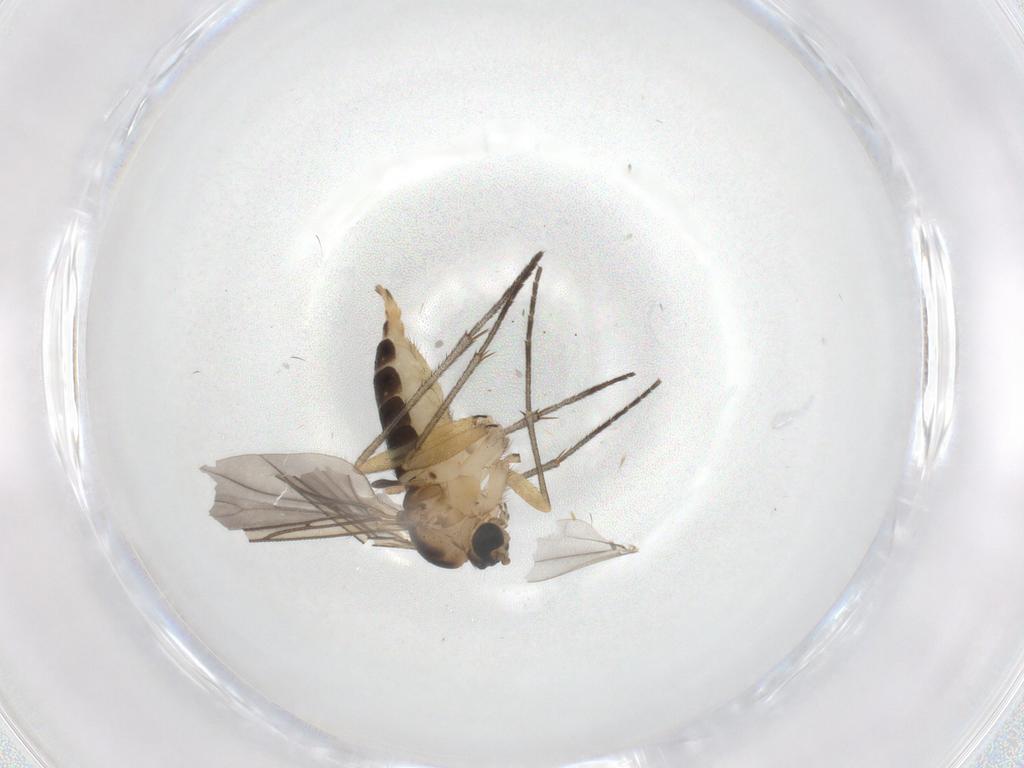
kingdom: Animalia
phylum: Arthropoda
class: Insecta
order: Diptera
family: Sciaridae
